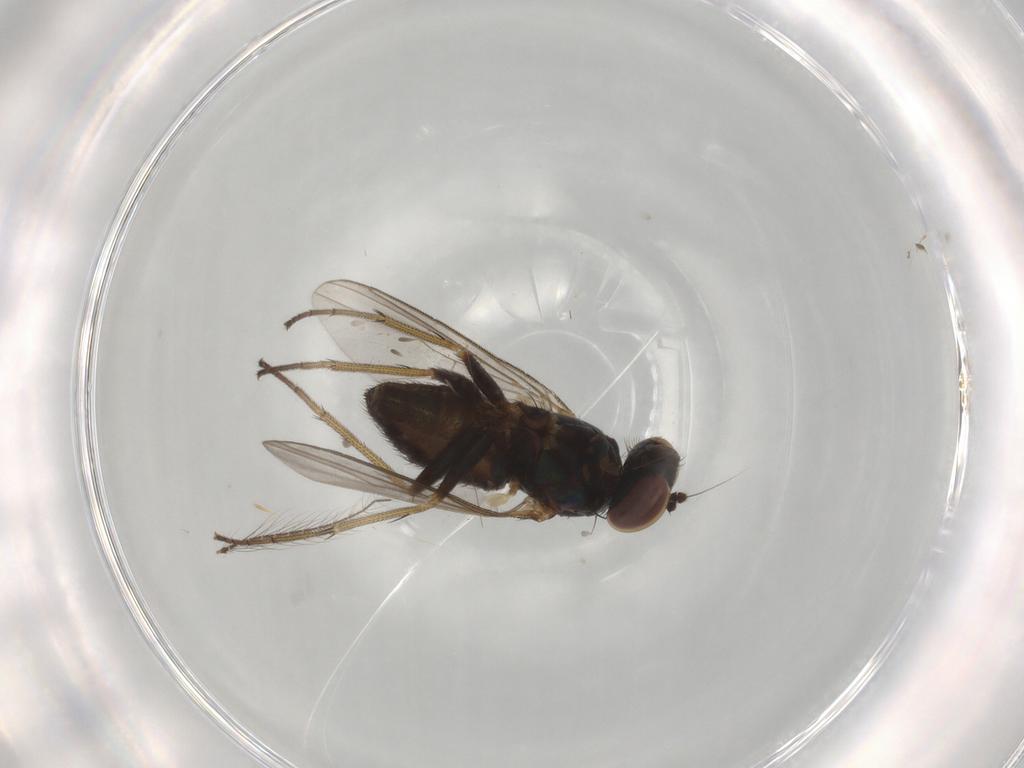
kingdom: Animalia
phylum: Arthropoda
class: Insecta
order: Diptera
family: Dolichopodidae
